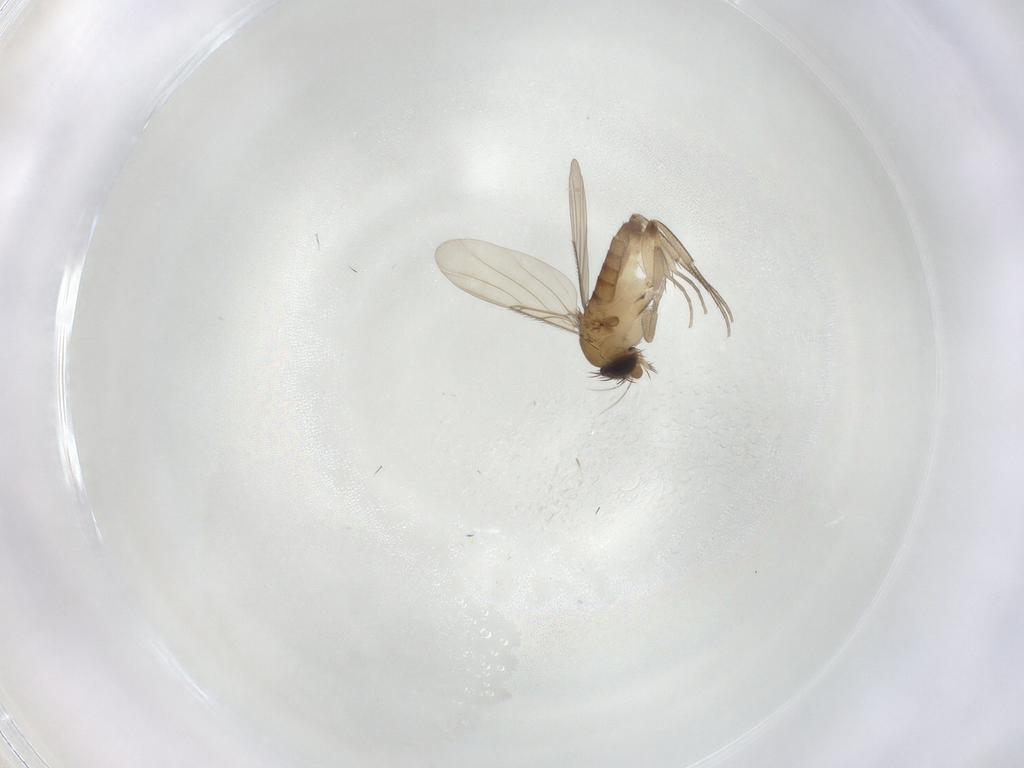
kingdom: Animalia
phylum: Arthropoda
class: Insecta
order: Diptera
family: Phoridae
